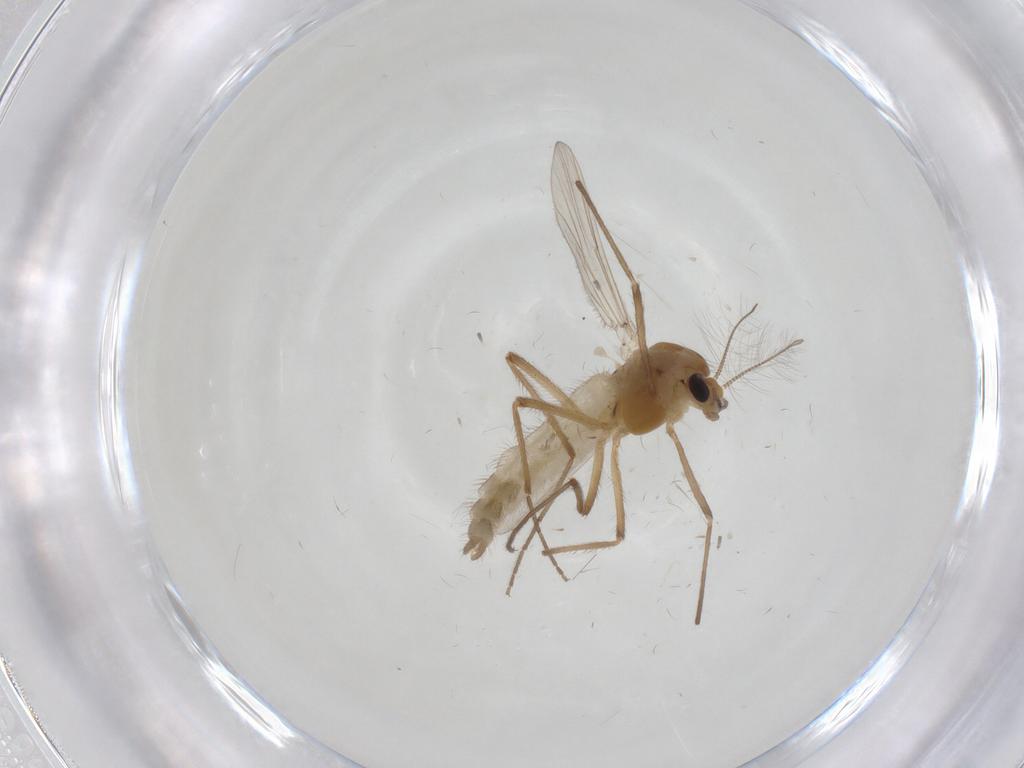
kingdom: Animalia
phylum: Arthropoda
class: Insecta
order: Diptera
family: Chironomidae
